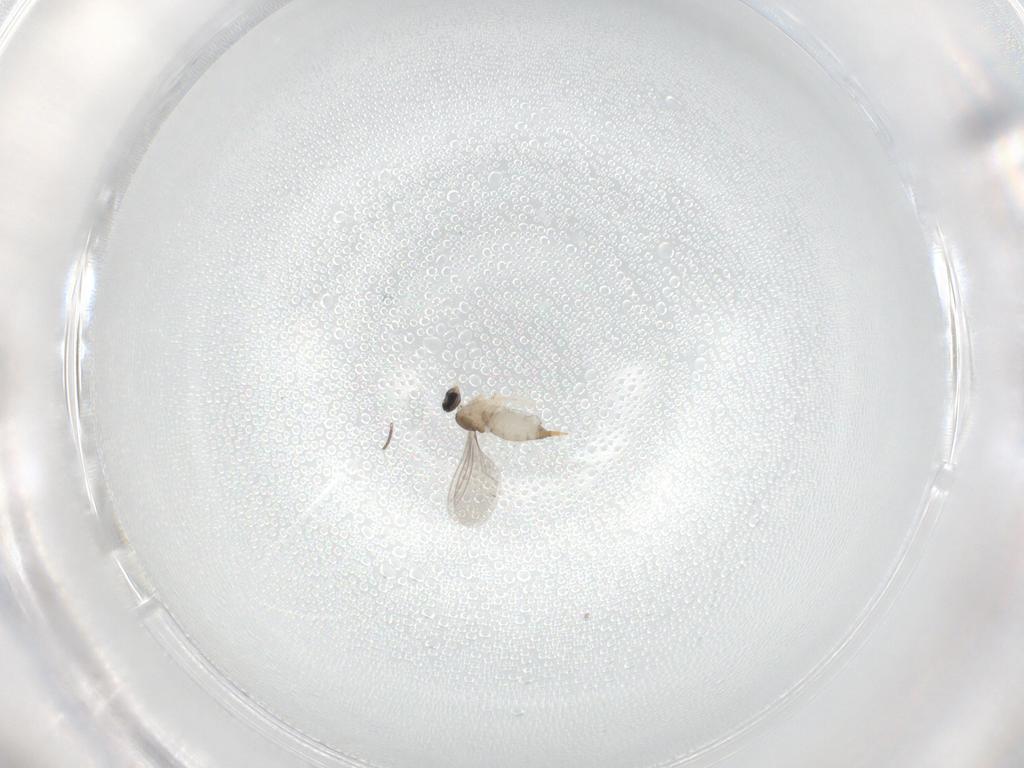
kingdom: Animalia
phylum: Arthropoda
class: Insecta
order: Diptera
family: Cecidomyiidae
